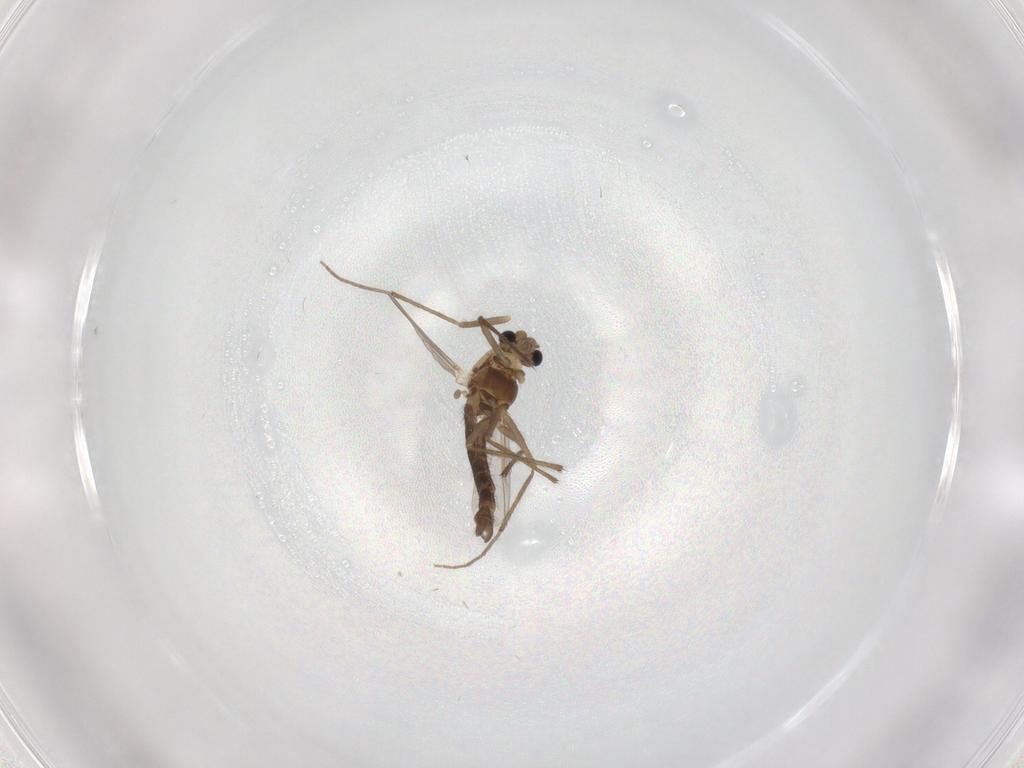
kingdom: Animalia
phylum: Arthropoda
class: Insecta
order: Diptera
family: Chironomidae
